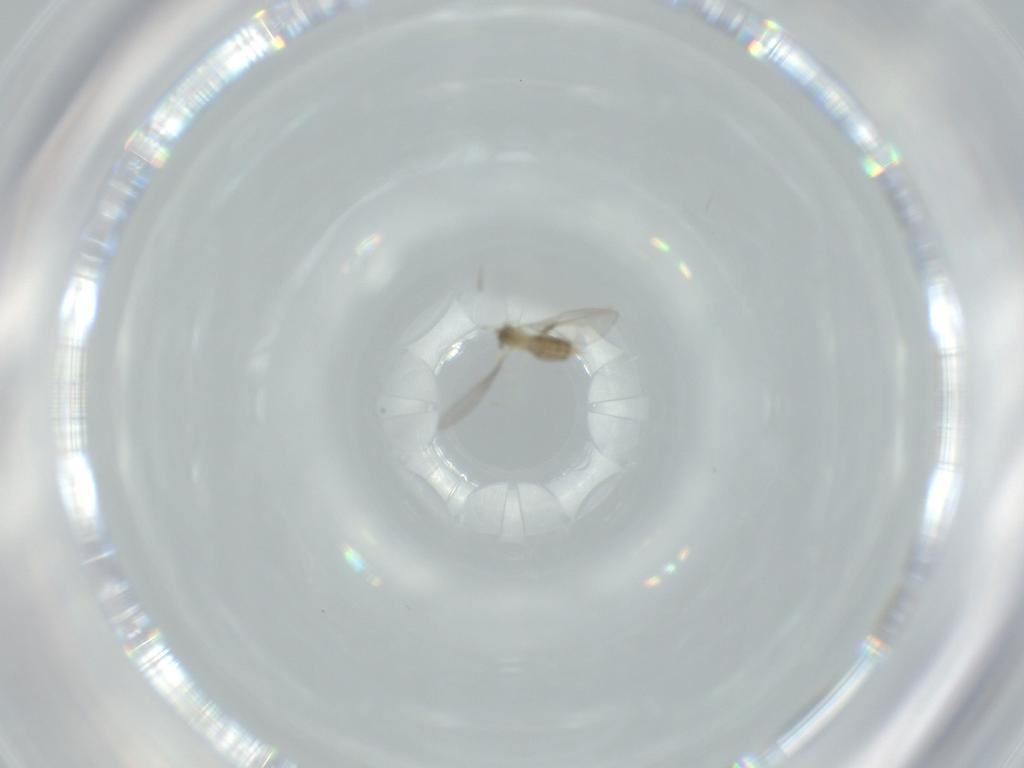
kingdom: Animalia
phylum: Arthropoda
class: Insecta
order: Diptera
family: Cecidomyiidae
